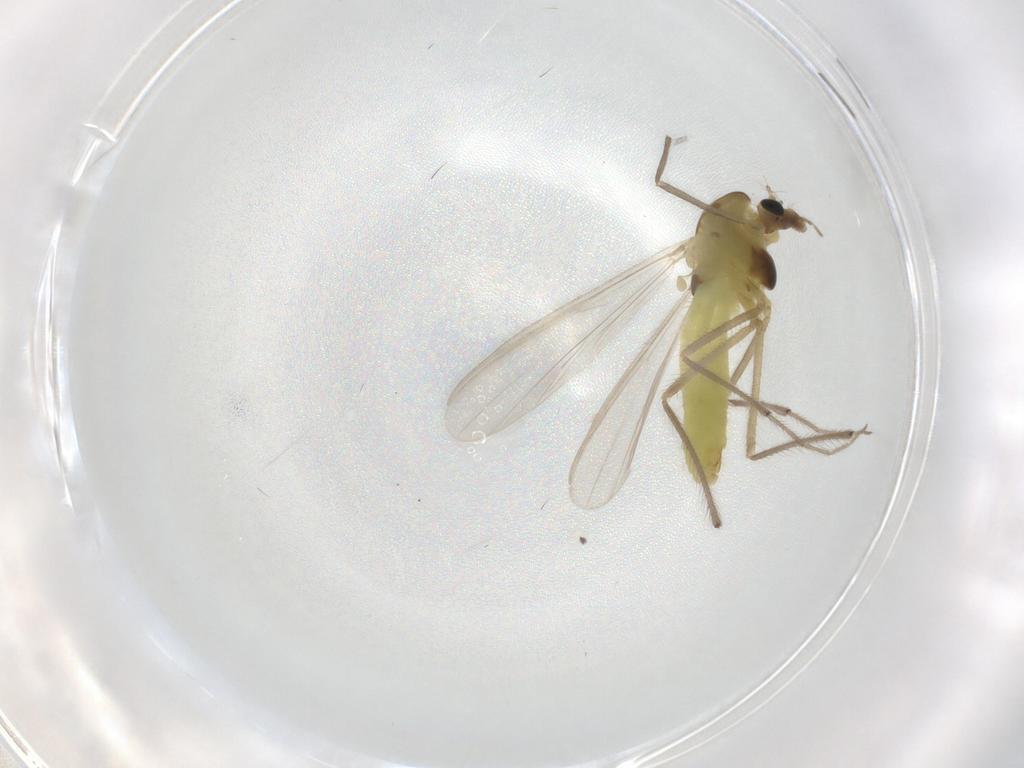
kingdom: Animalia
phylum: Arthropoda
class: Insecta
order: Diptera
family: Chironomidae
